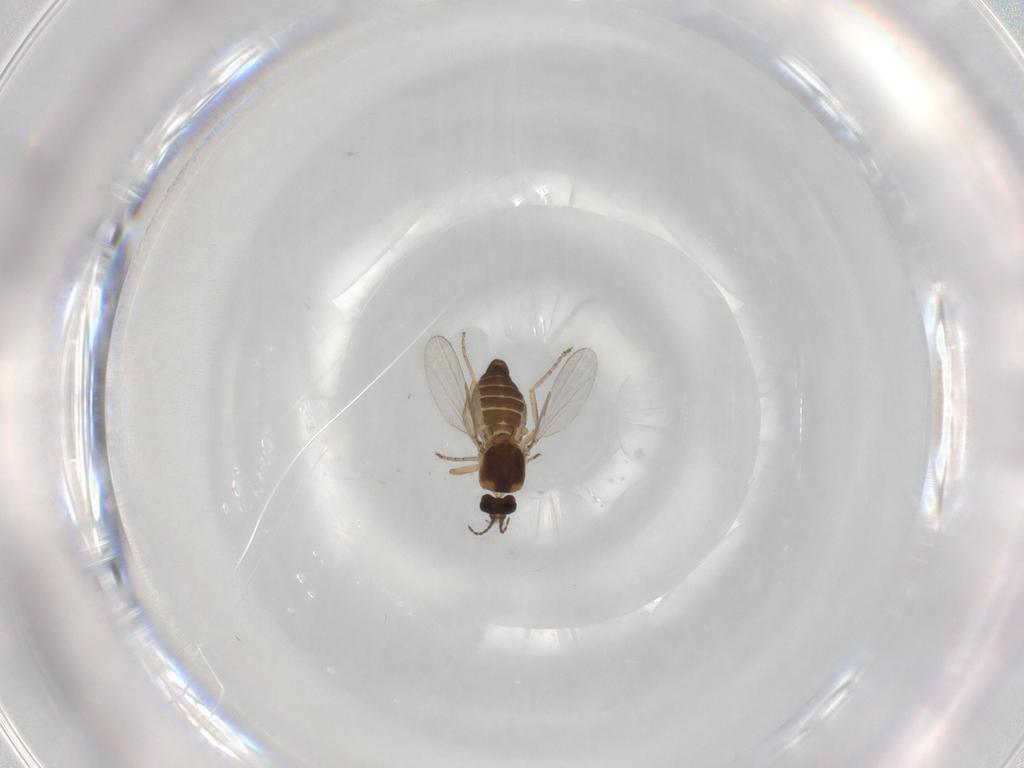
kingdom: Animalia
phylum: Arthropoda
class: Insecta
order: Diptera
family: Ceratopogonidae
